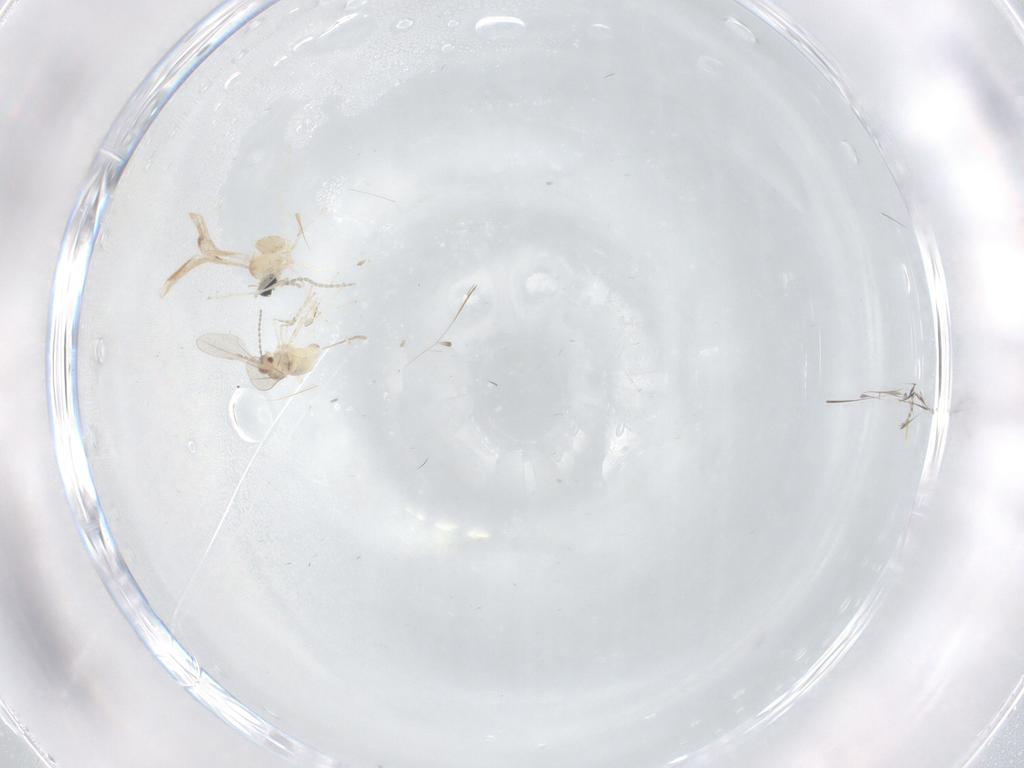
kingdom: Animalia
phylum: Arthropoda
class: Insecta
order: Diptera
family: Cecidomyiidae
